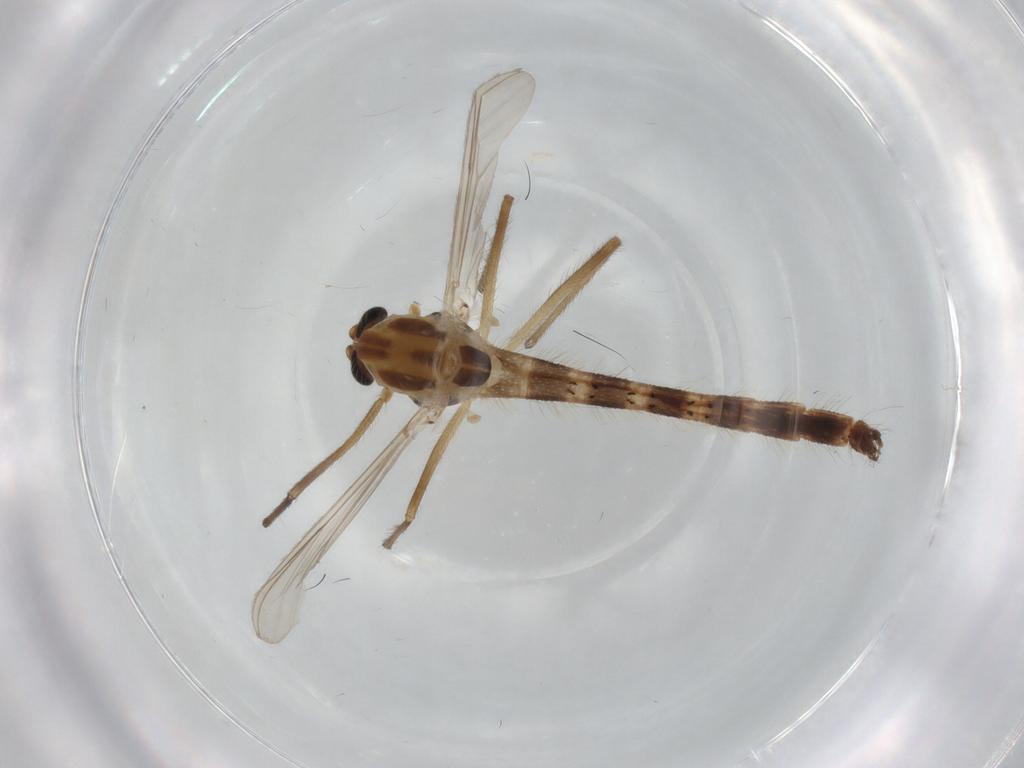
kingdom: Animalia
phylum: Arthropoda
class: Insecta
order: Diptera
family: Chironomidae
